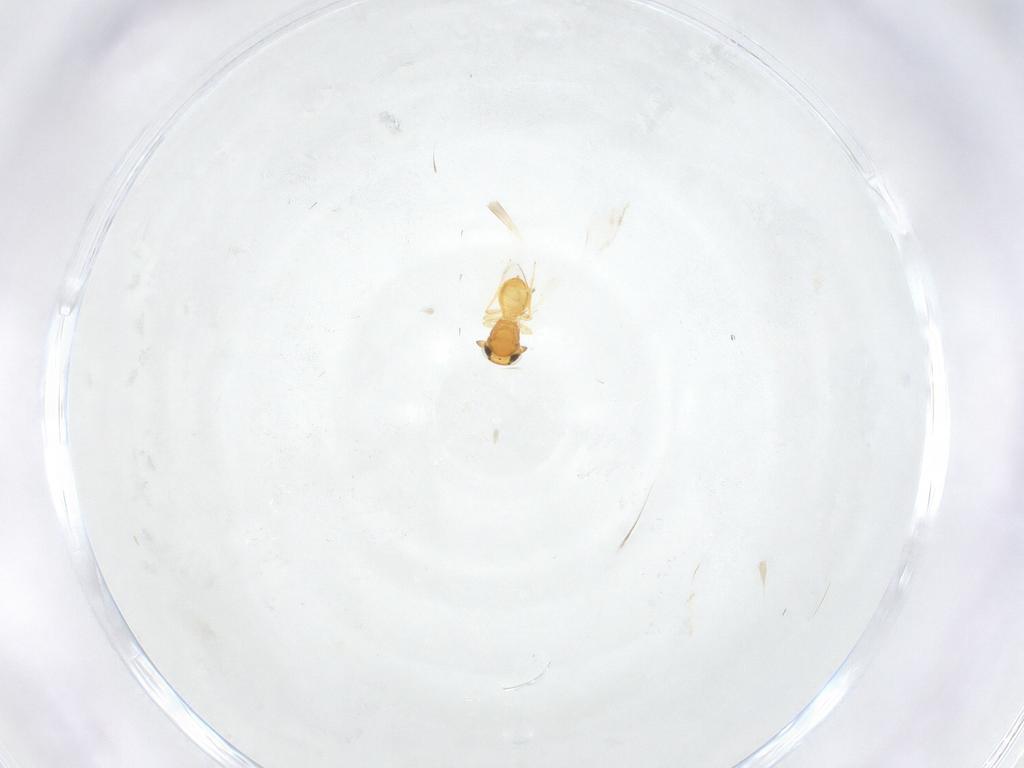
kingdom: Animalia
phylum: Arthropoda
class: Insecta
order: Hymenoptera
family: Scelionidae
